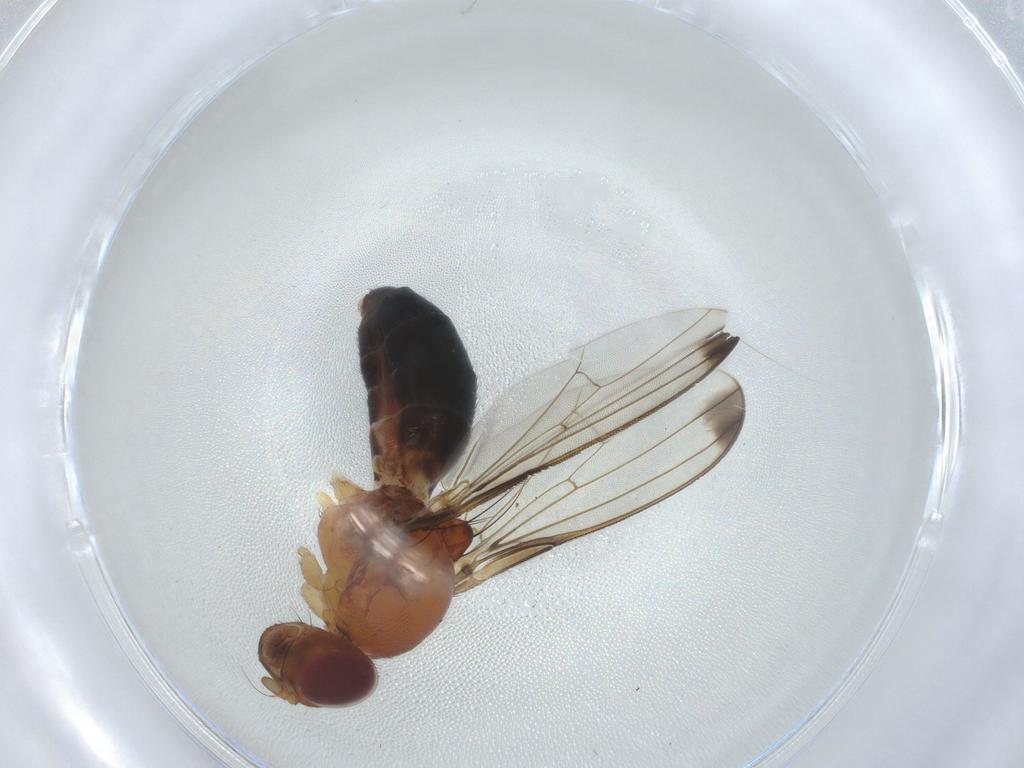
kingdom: Animalia
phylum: Arthropoda
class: Insecta
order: Diptera
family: Piophilidae
